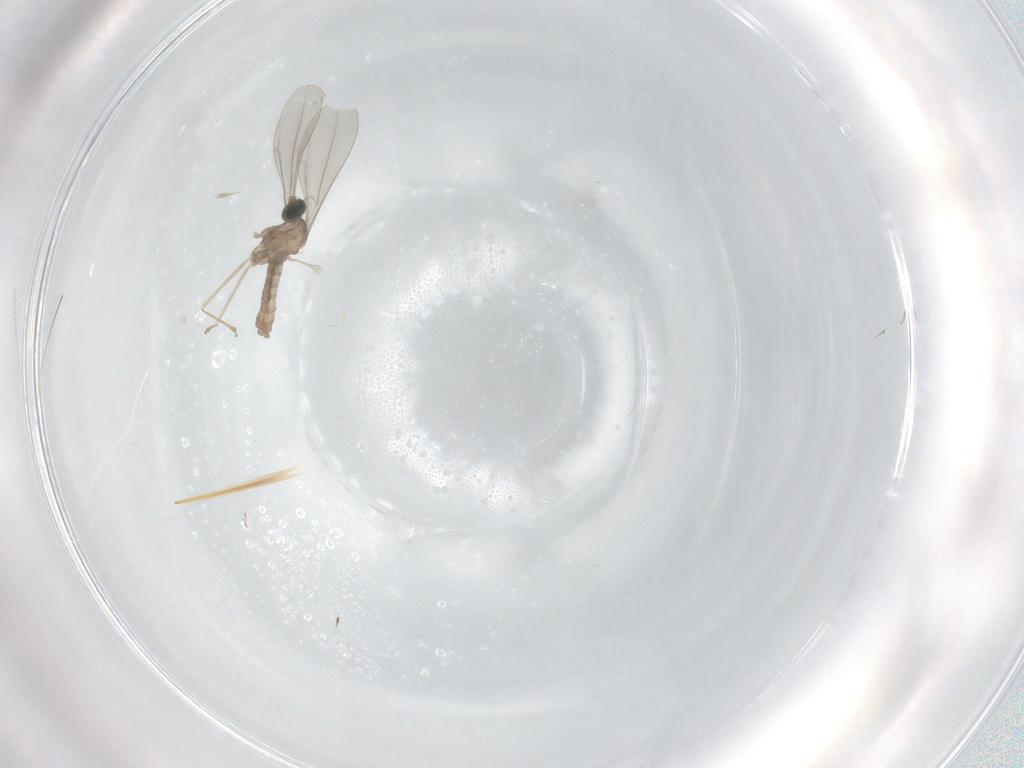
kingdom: Animalia
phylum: Arthropoda
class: Insecta
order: Diptera
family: Cecidomyiidae
